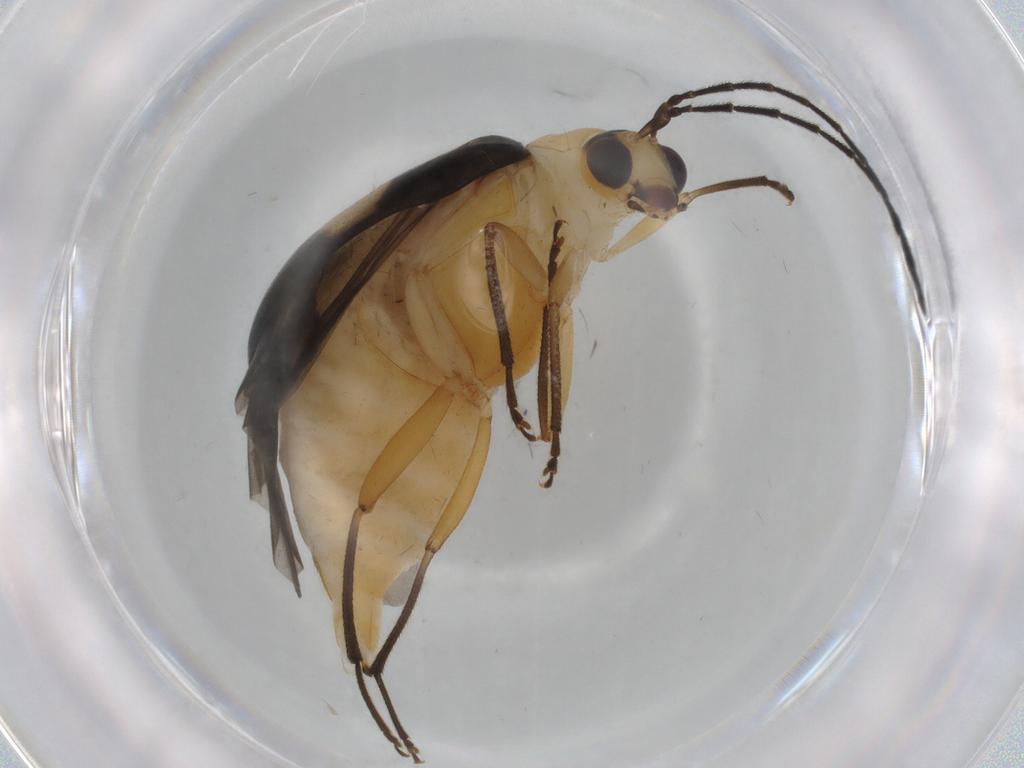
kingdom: Animalia
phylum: Arthropoda
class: Insecta
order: Coleoptera
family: Chrysomelidae
